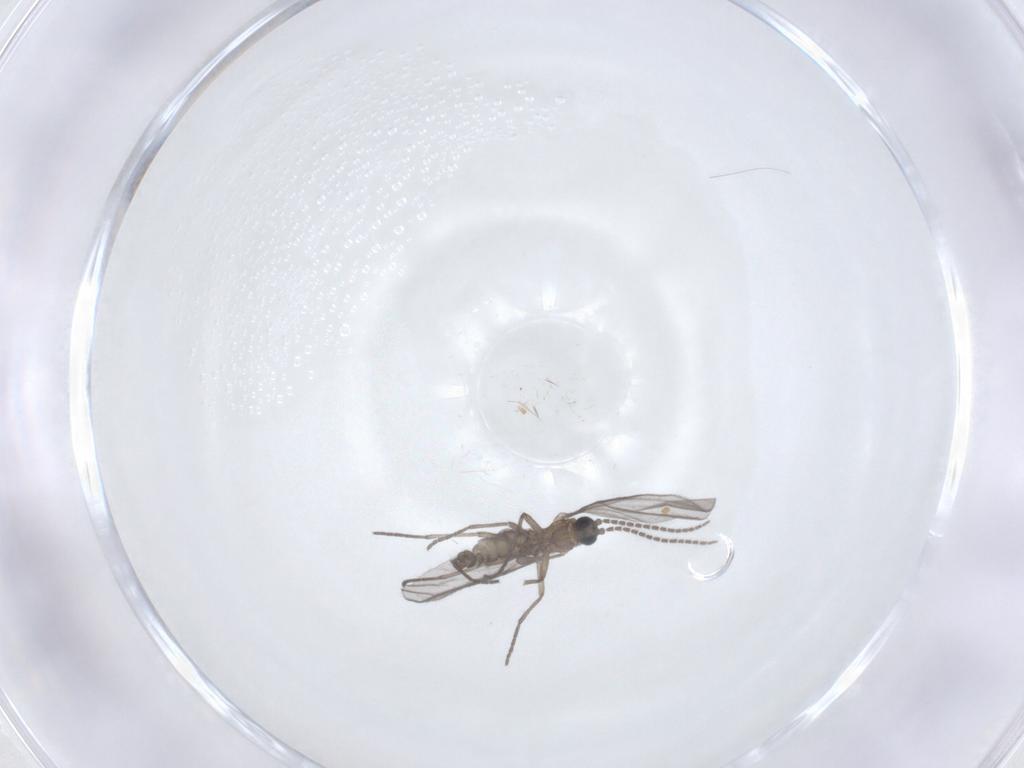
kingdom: Animalia
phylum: Arthropoda
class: Insecta
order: Diptera
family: Sciaridae
